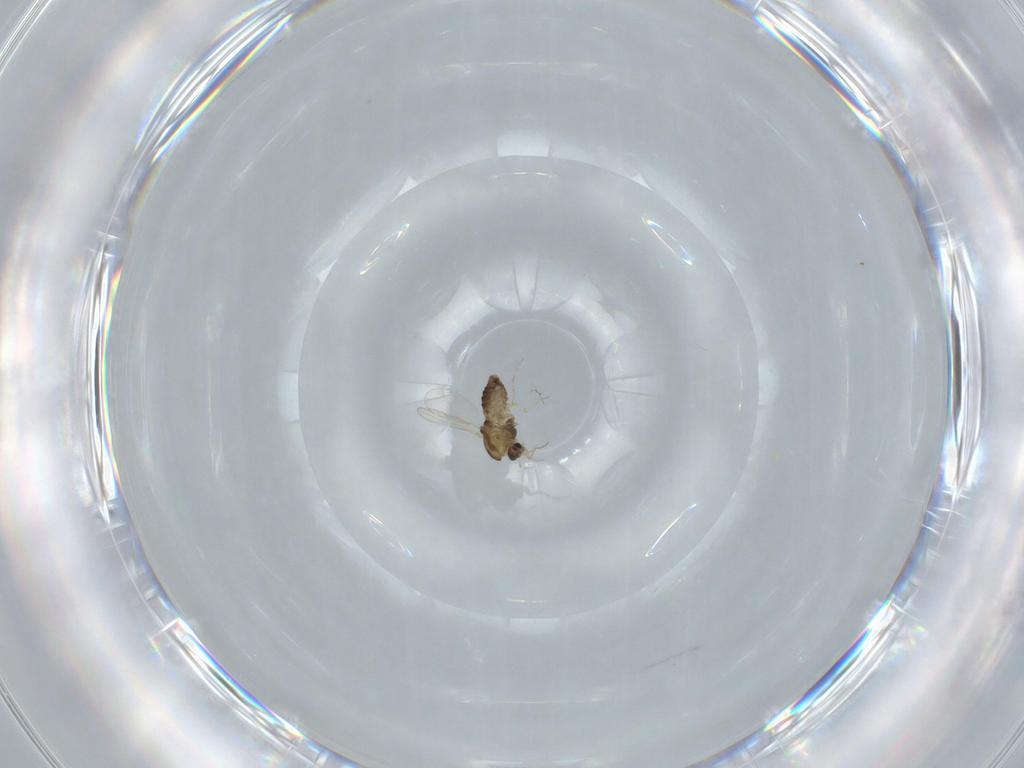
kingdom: Animalia
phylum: Arthropoda
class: Insecta
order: Diptera
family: Chironomidae
